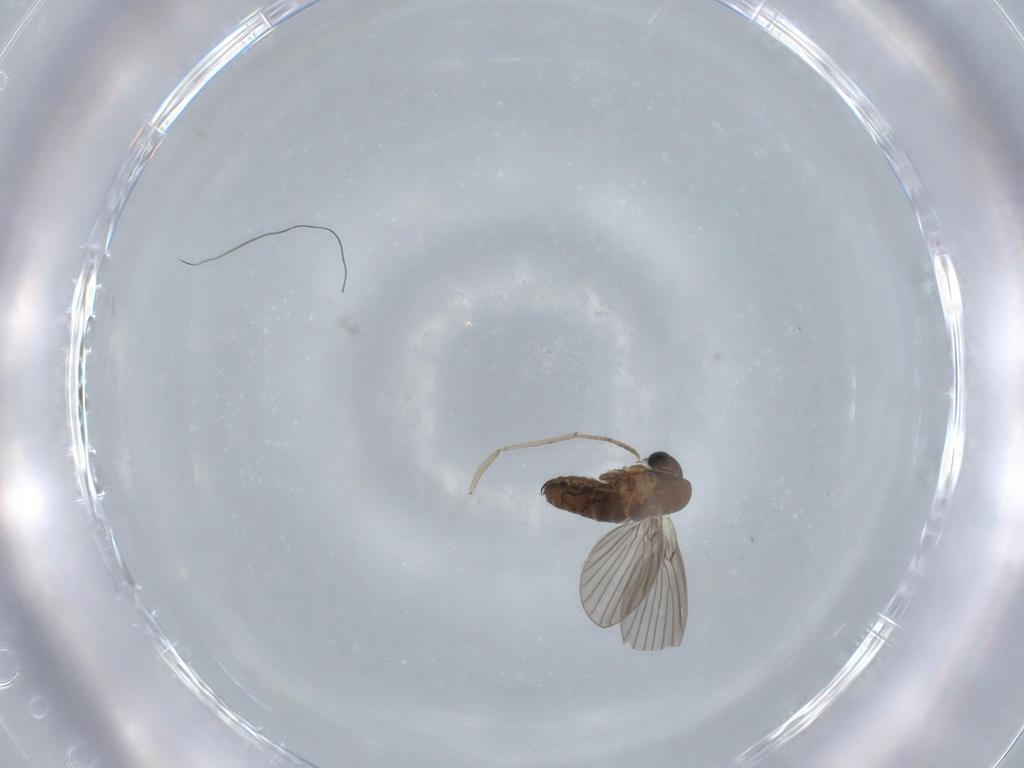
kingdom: Animalia
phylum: Arthropoda
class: Insecta
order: Diptera
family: Psychodidae
